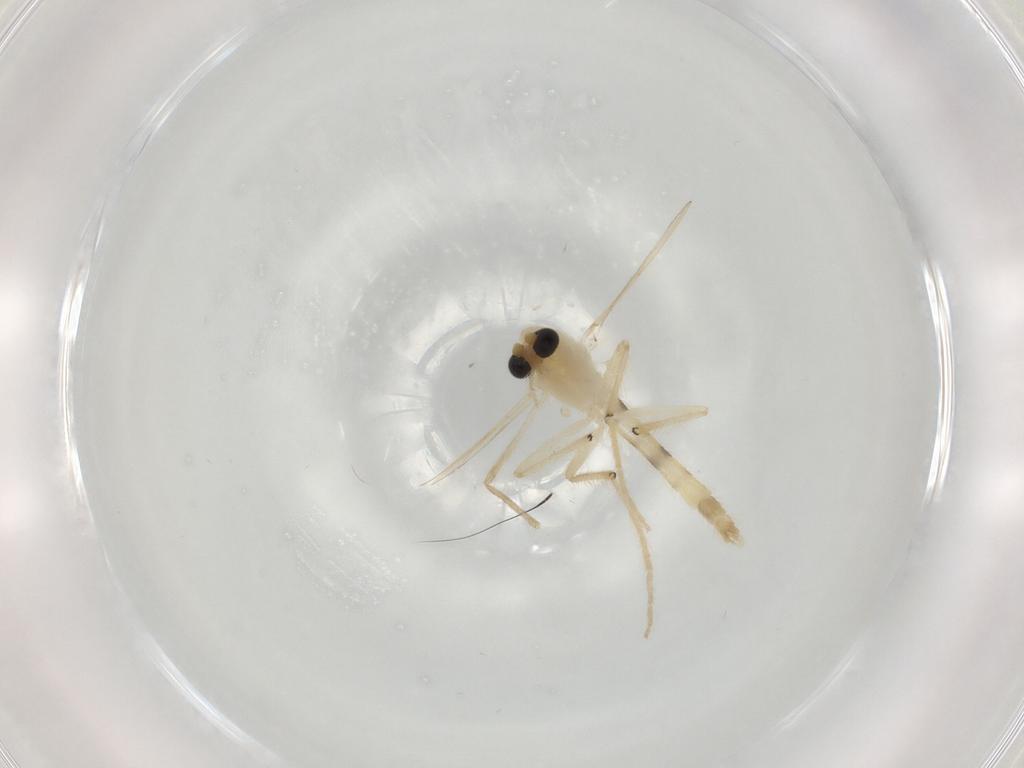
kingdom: Animalia
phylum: Arthropoda
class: Insecta
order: Diptera
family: Chironomidae
